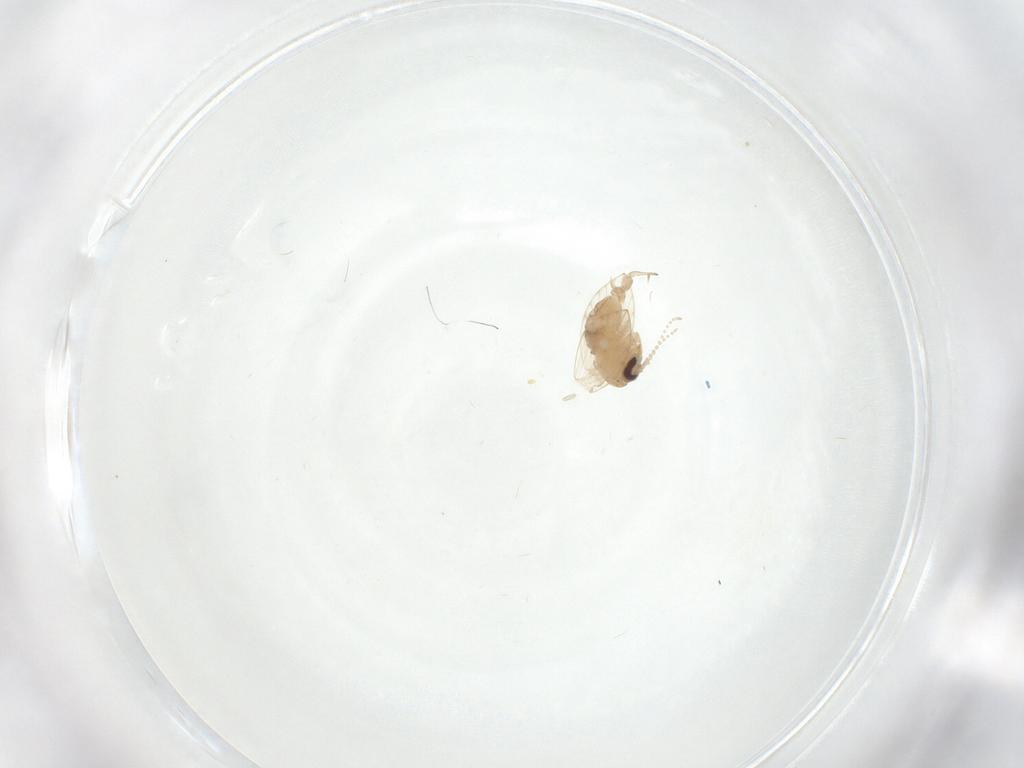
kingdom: Animalia
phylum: Arthropoda
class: Insecta
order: Diptera
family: Psychodidae
